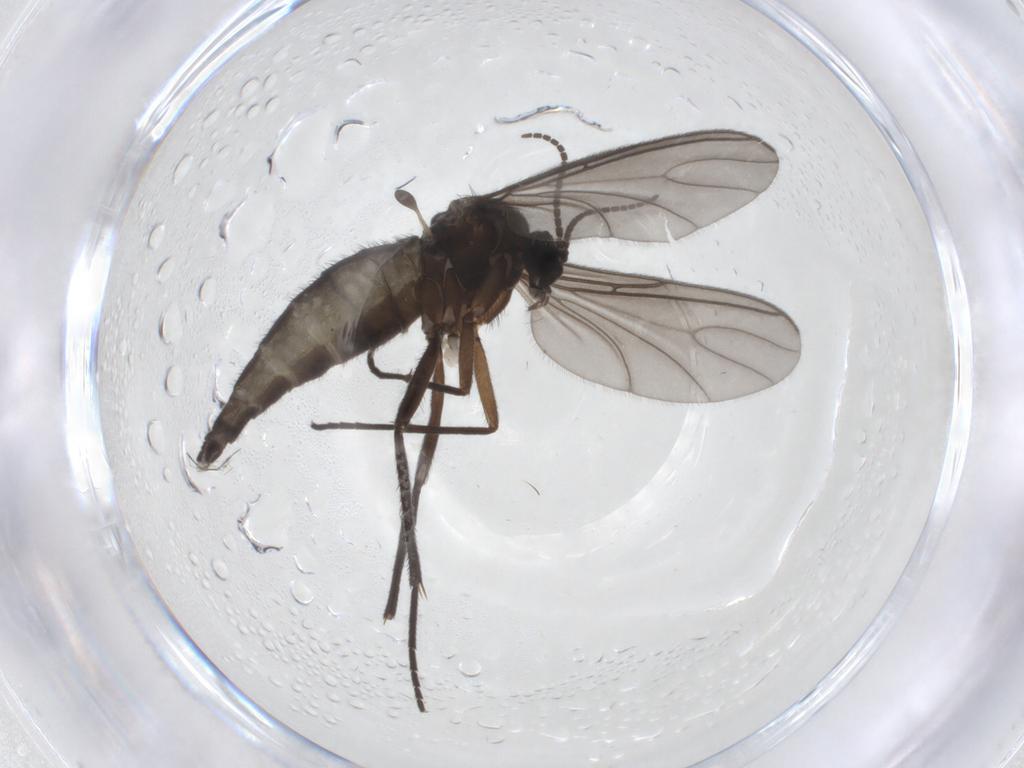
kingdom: Animalia
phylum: Arthropoda
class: Insecta
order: Diptera
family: Sciaridae
